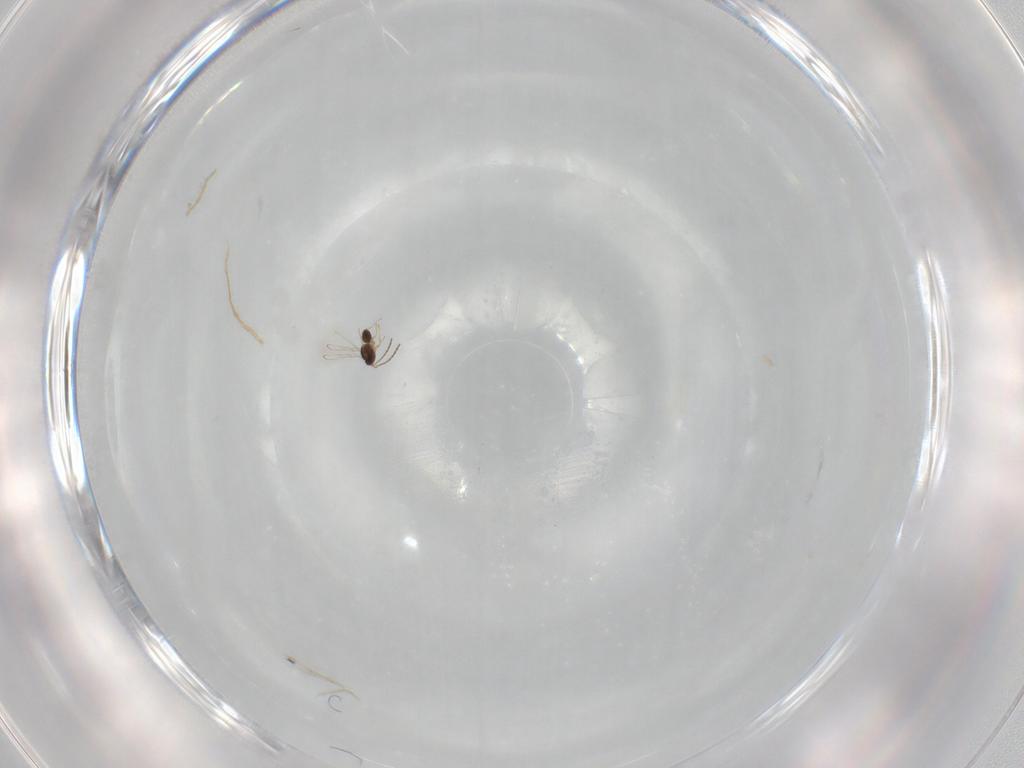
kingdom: Animalia
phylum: Arthropoda
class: Insecta
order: Hymenoptera
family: Mymaridae
